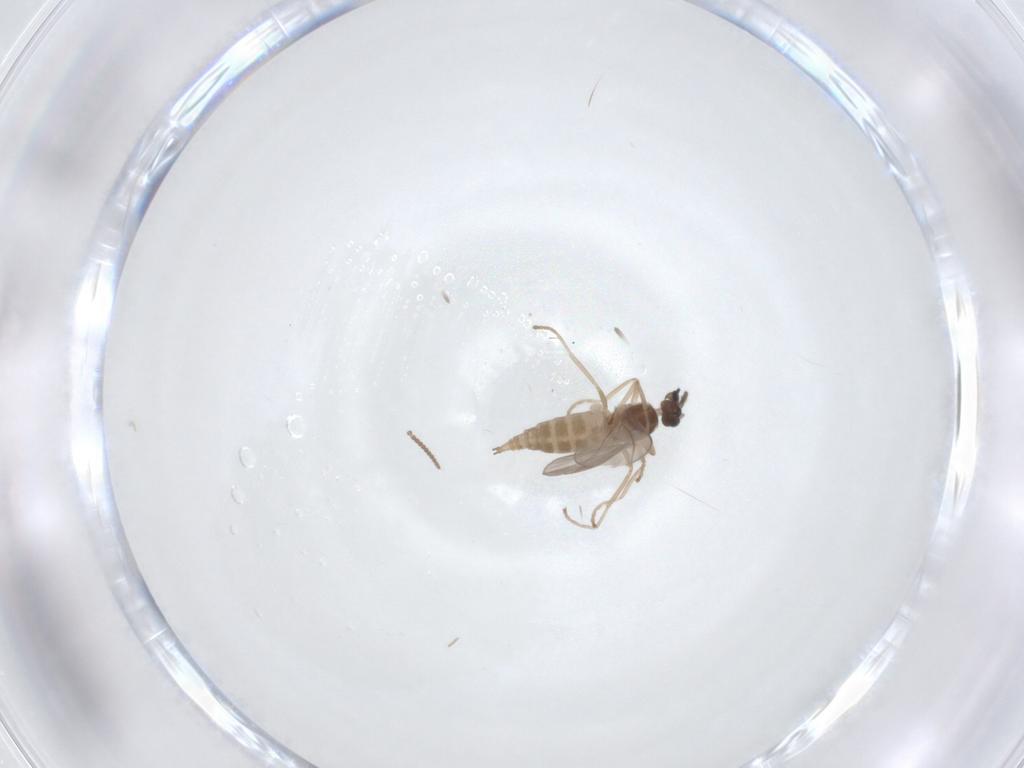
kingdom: Animalia
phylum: Arthropoda
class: Insecta
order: Diptera
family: Cecidomyiidae
